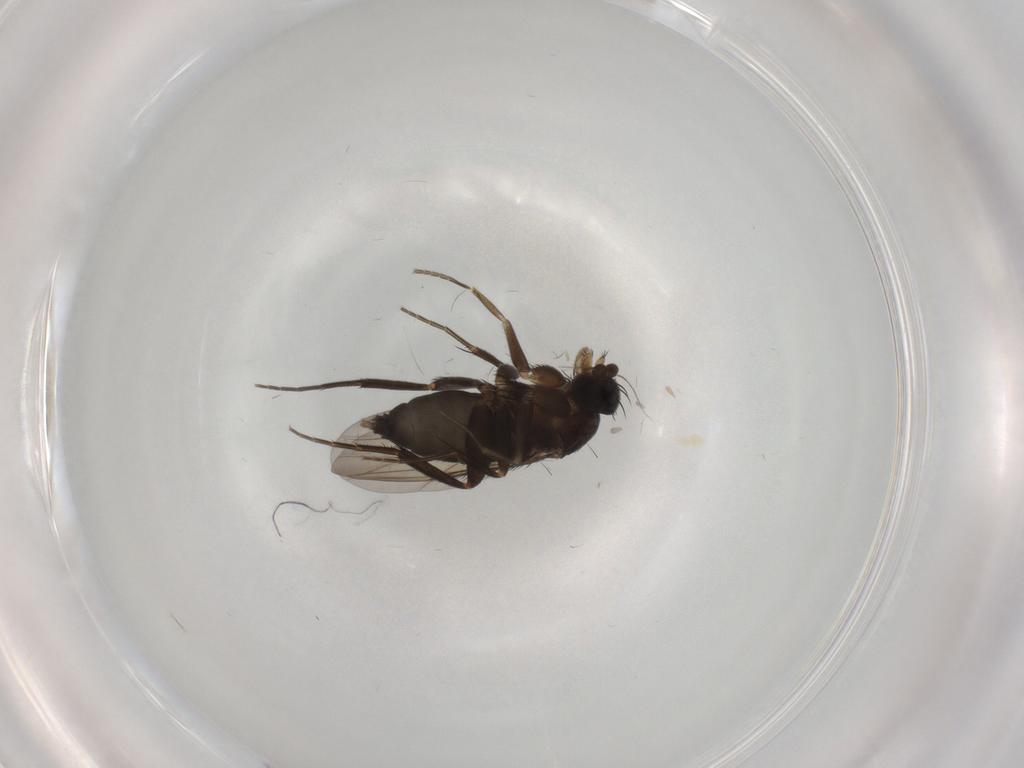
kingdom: Animalia
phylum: Arthropoda
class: Insecta
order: Diptera
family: Phoridae
